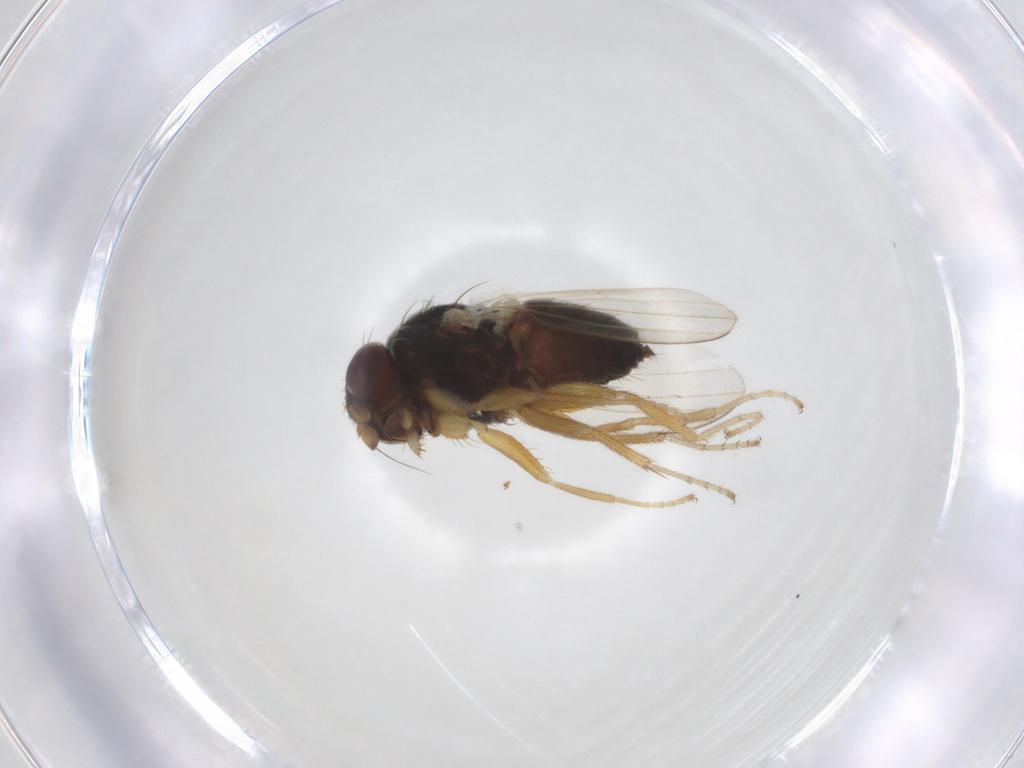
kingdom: Animalia
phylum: Arthropoda
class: Insecta
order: Diptera
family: Milichiidae
